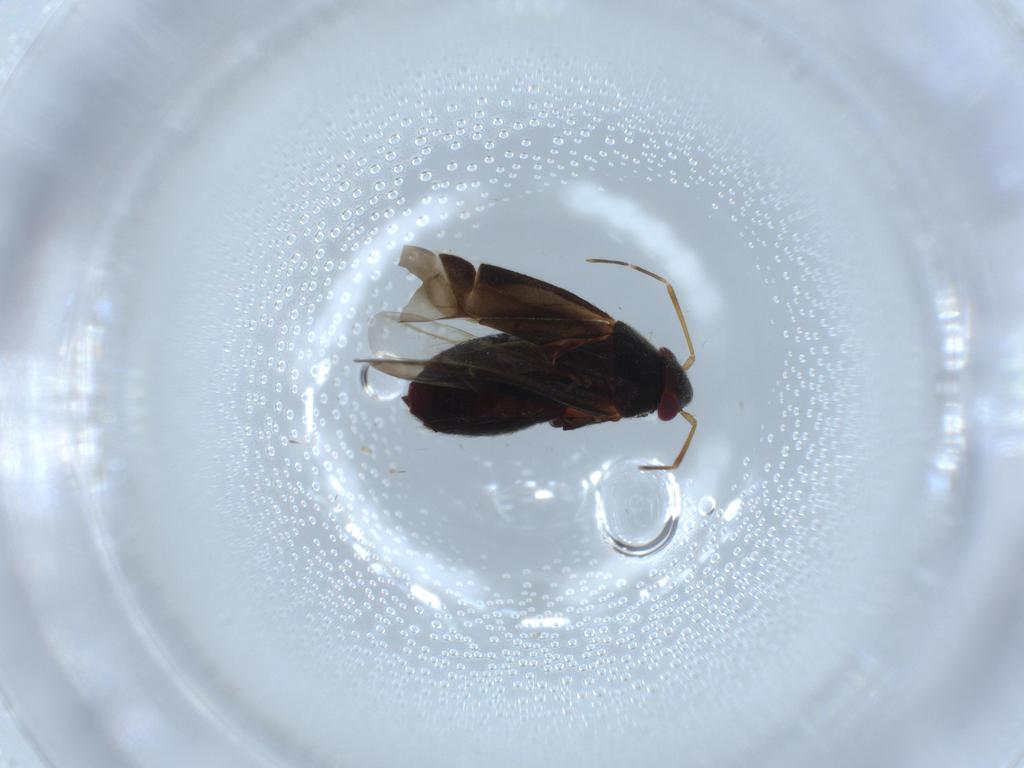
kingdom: Animalia
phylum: Arthropoda
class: Insecta
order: Hemiptera
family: Miridae
